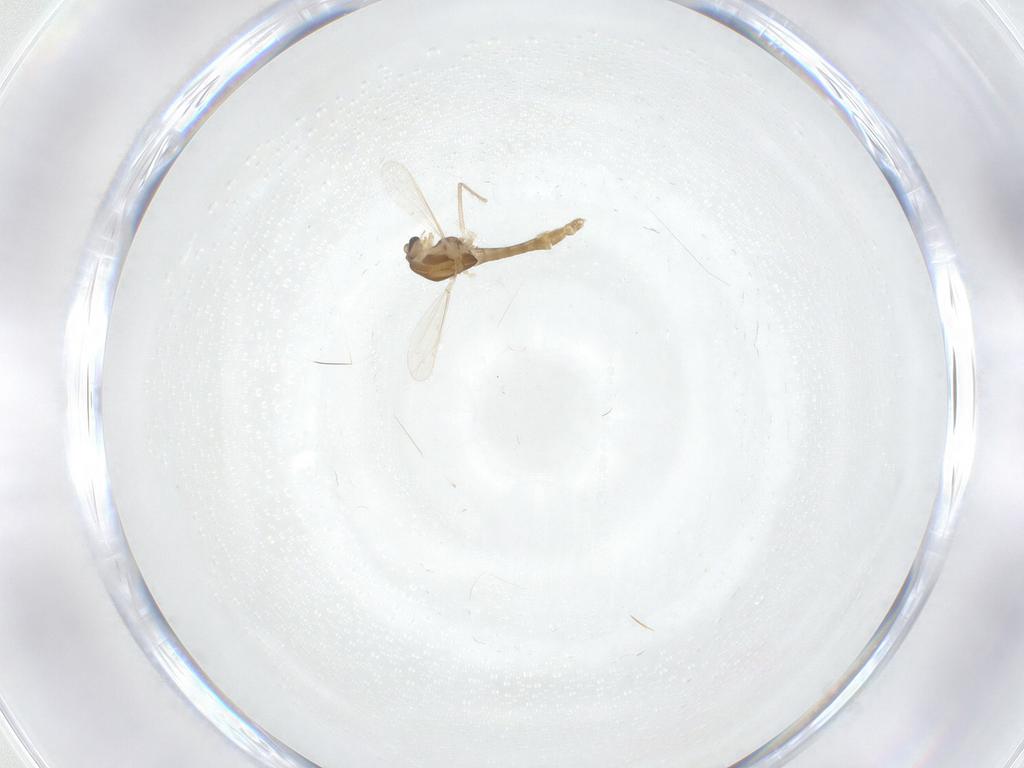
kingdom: Animalia
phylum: Arthropoda
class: Insecta
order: Diptera
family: Chironomidae
